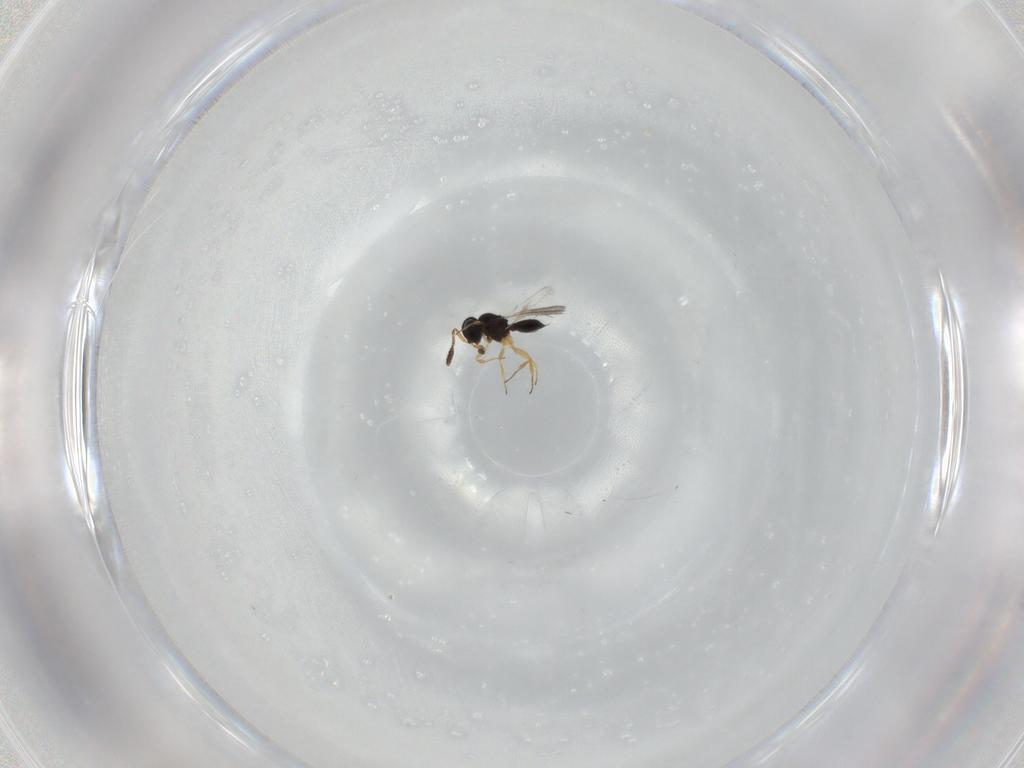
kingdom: Animalia
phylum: Arthropoda
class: Insecta
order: Hymenoptera
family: Scelionidae
